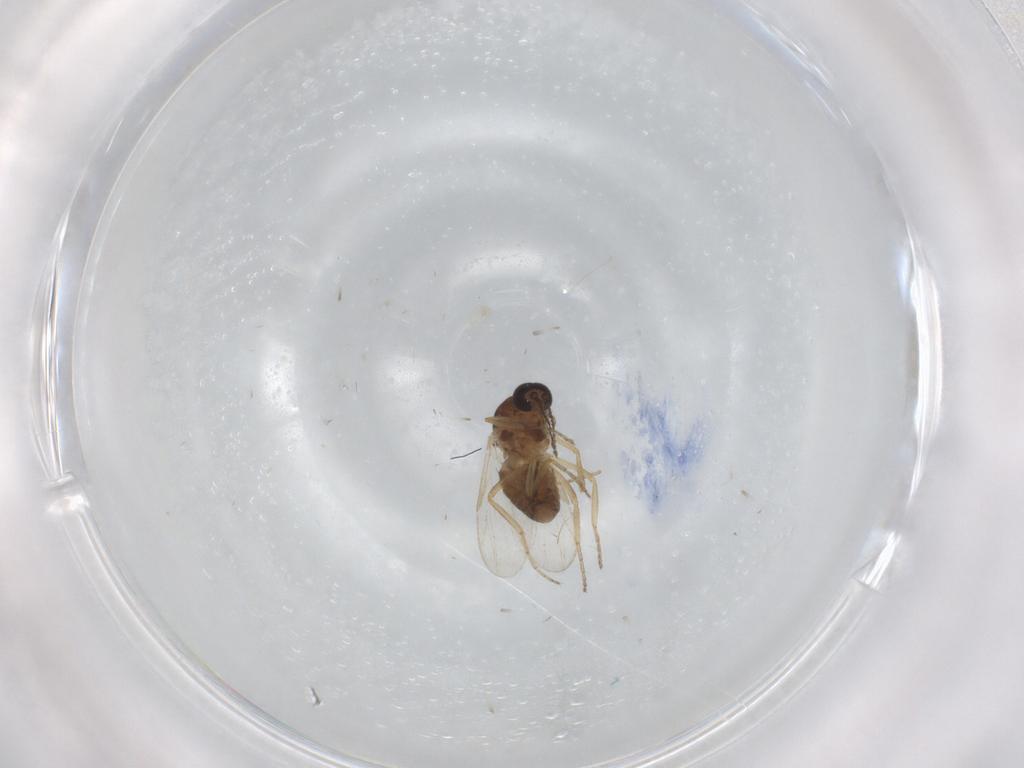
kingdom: Animalia
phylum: Arthropoda
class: Insecta
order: Diptera
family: Ceratopogonidae
